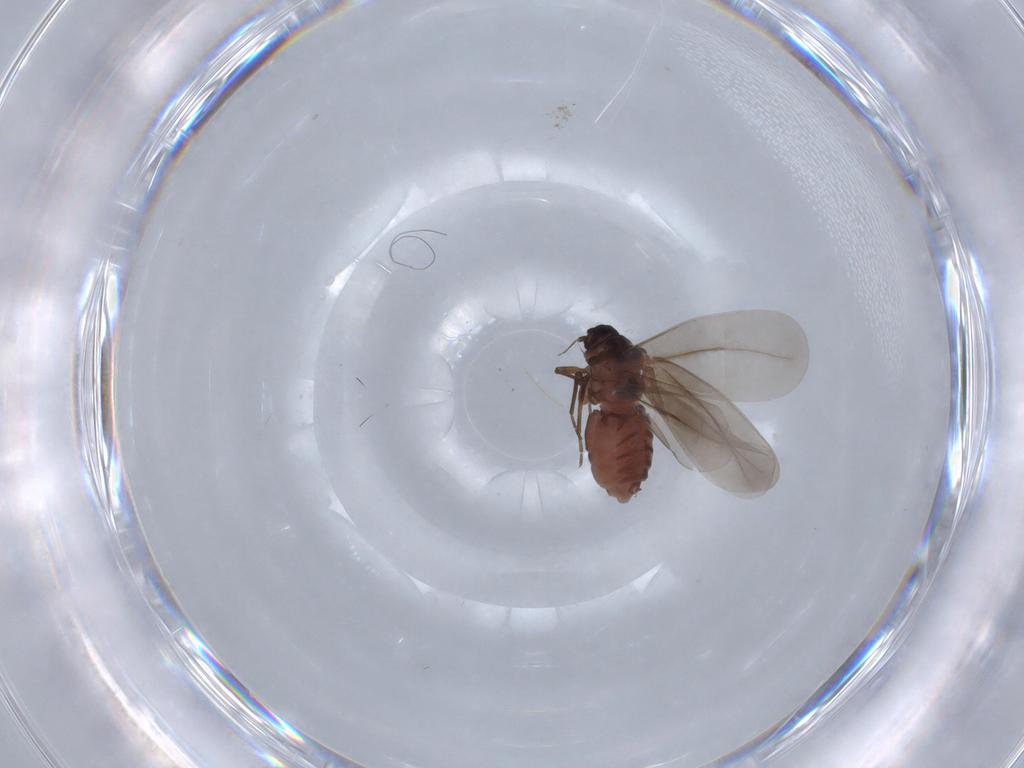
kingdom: Animalia
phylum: Arthropoda
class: Insecta
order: Hemiptera
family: Aleyrodidae
